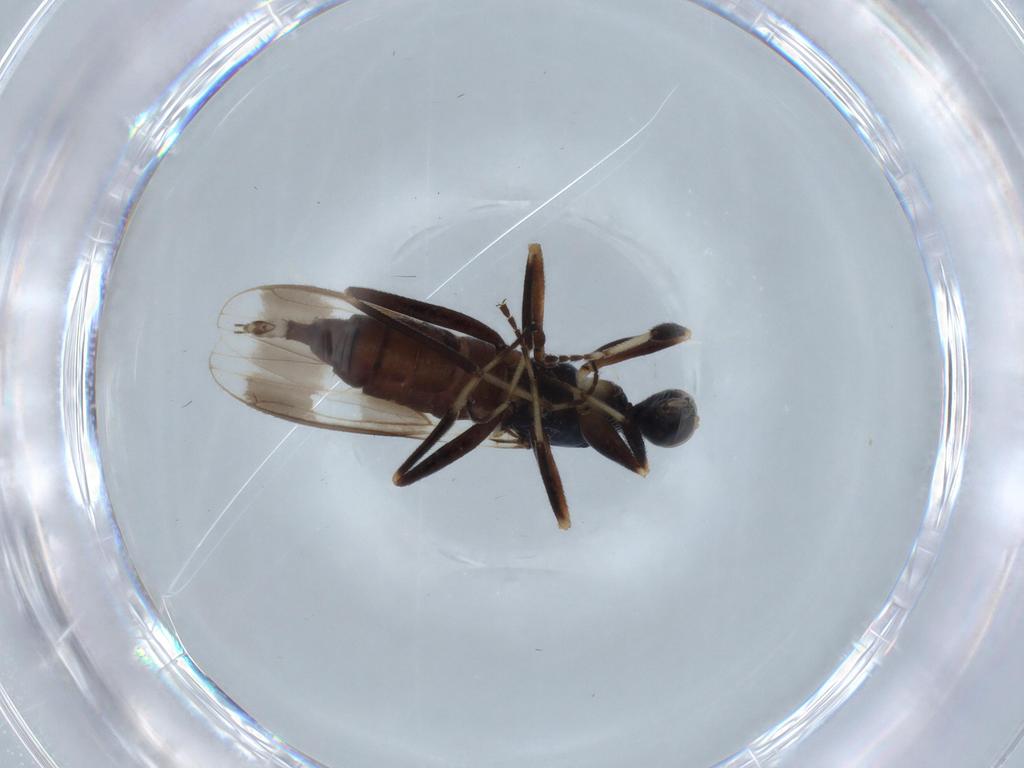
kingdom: Animalia
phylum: Arthropoda
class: Insecta
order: Diptera
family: Hybotidae
